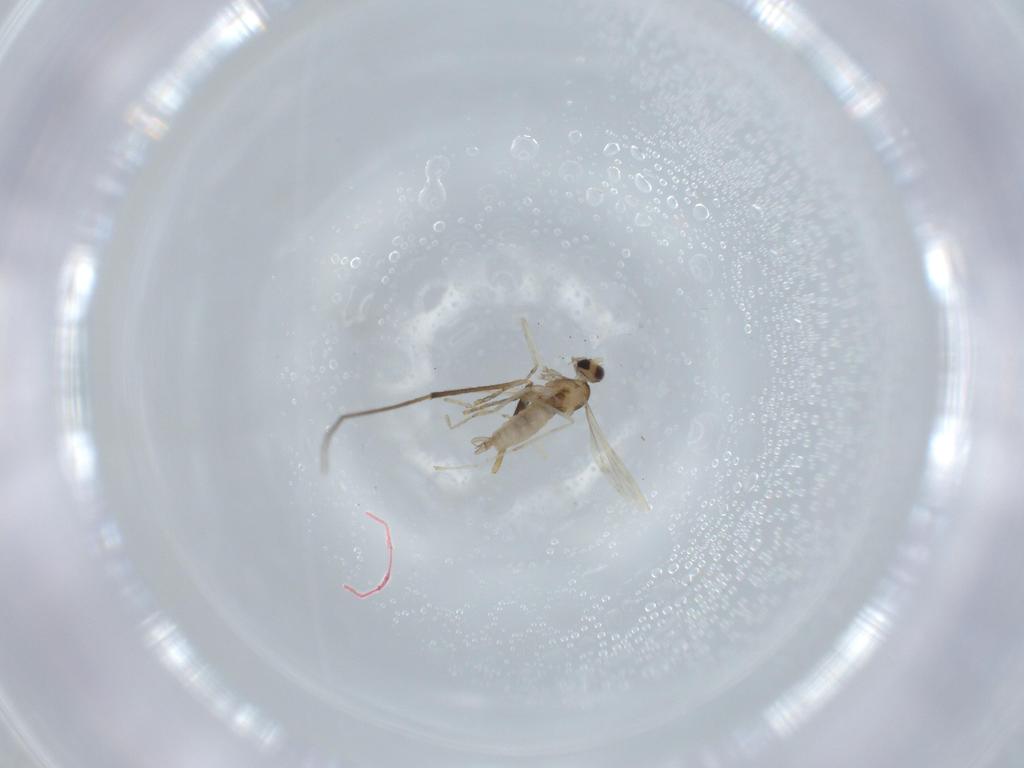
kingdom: Animalia
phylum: Arthropoda
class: Insecta
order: Diptera
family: Chironomidae
